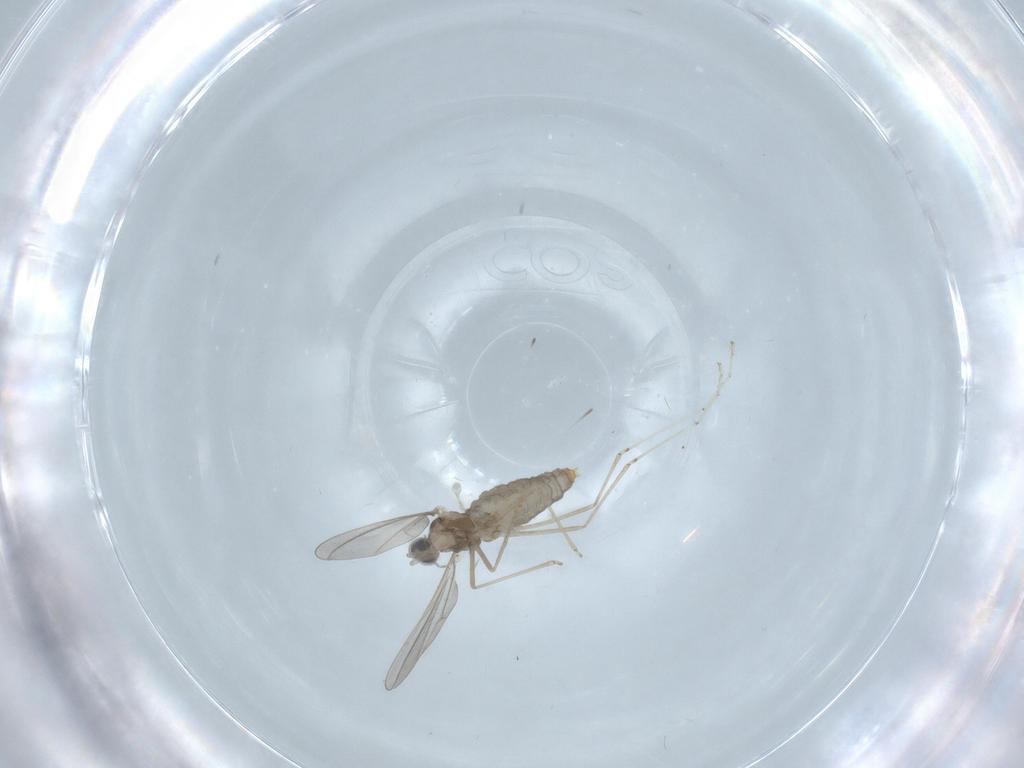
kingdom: Animalia
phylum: Arthropoda
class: Insecta
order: Diptera
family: Cecidomyiidae
